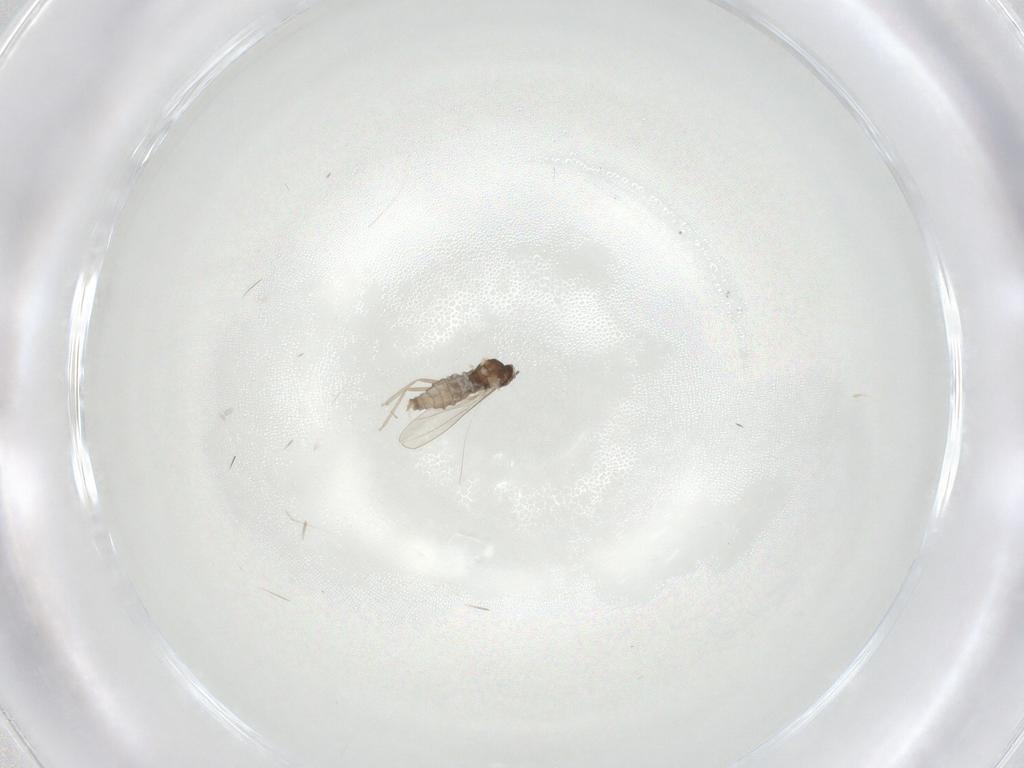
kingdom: Animalia
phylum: Arthropoda
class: Insecta
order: Diptera
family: Cecidomyiidae
